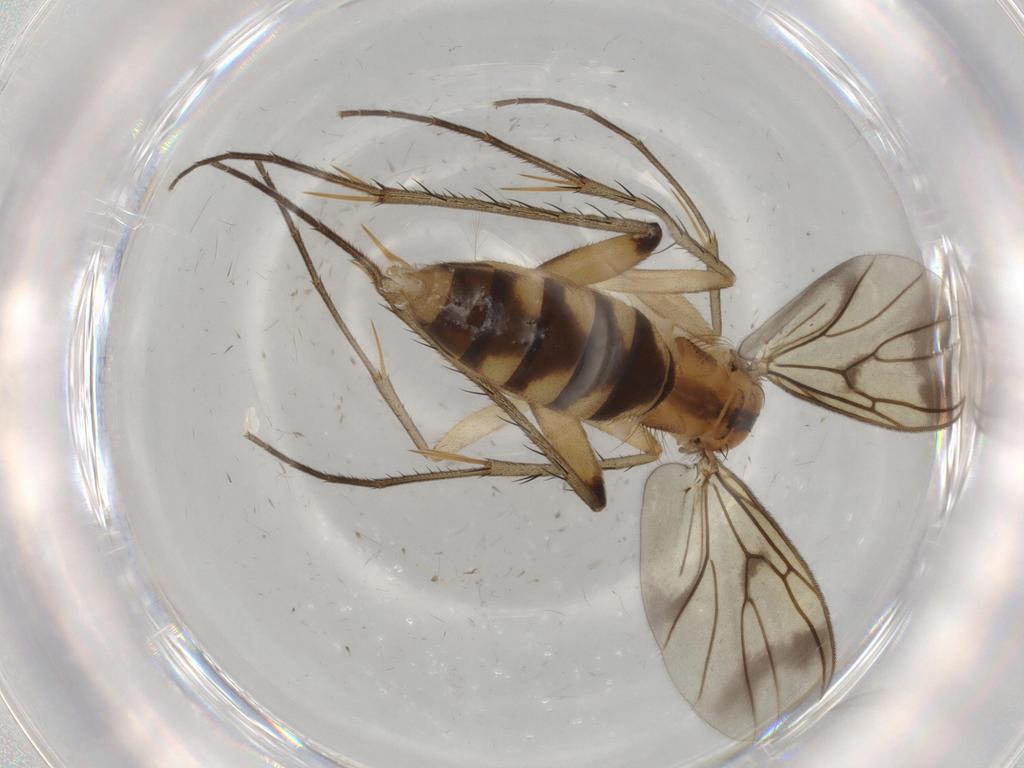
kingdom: Animalia
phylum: Arthropoda
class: Insecta
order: Diptera
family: Mycetophilidae
